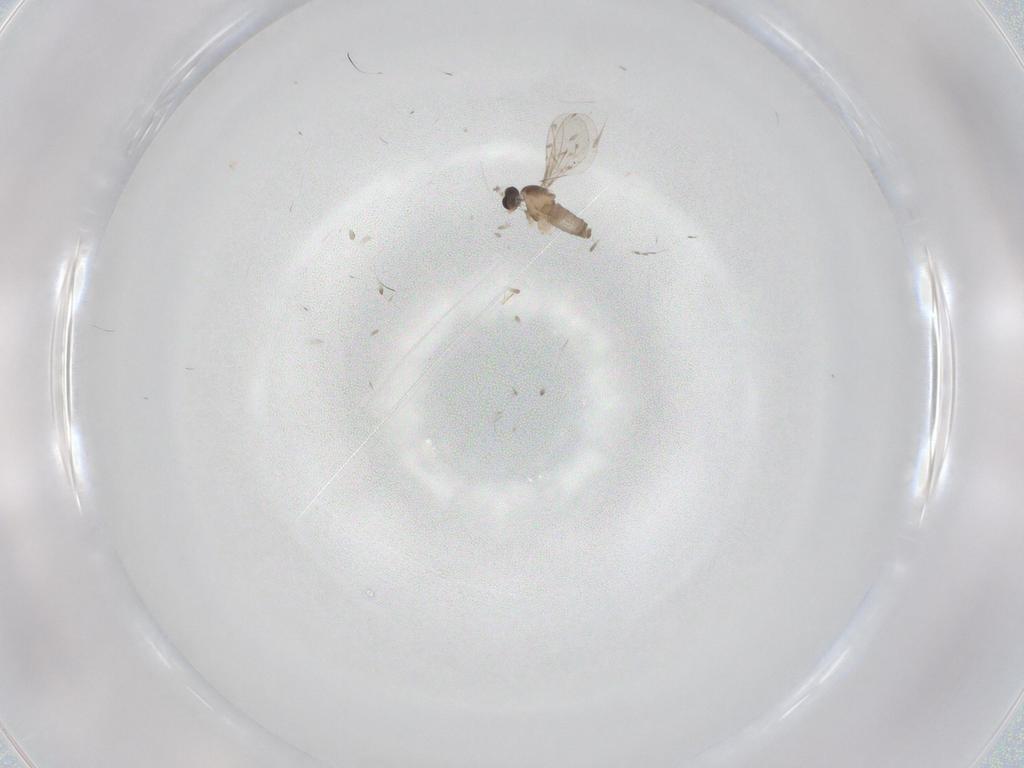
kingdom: Animalia
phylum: Arthropoda
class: Insecta
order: Diptera
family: Cecidomyiidae
